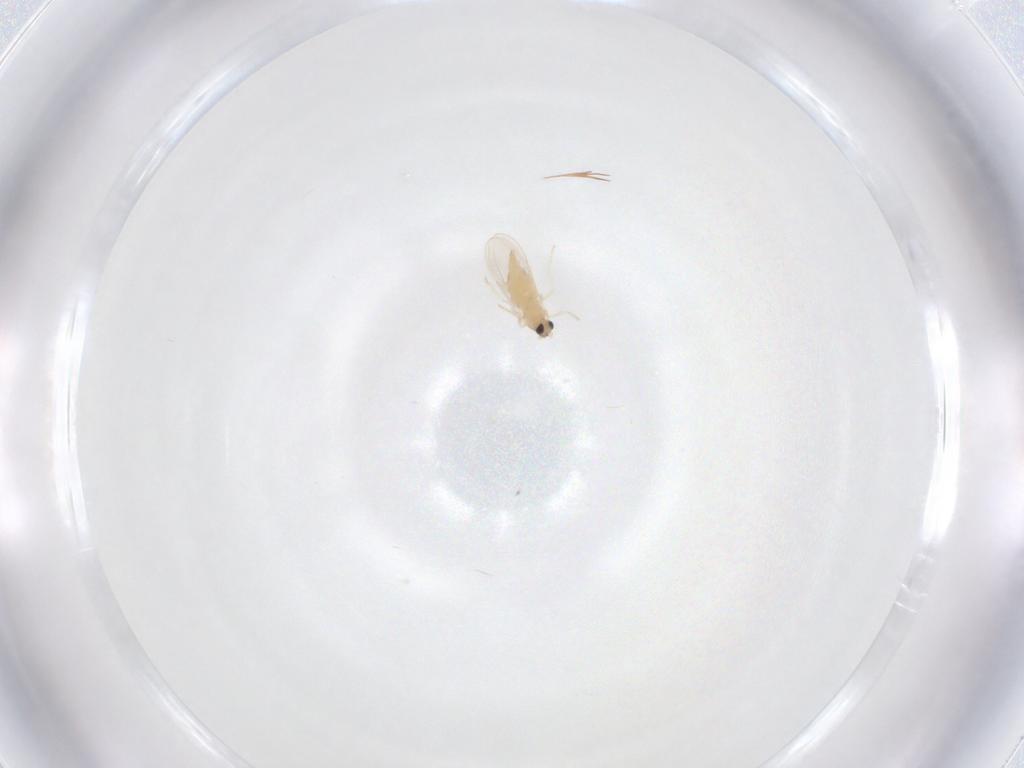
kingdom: Animalia
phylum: Arthropoda
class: Insecta
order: Diptera
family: Cecidomyiidae
